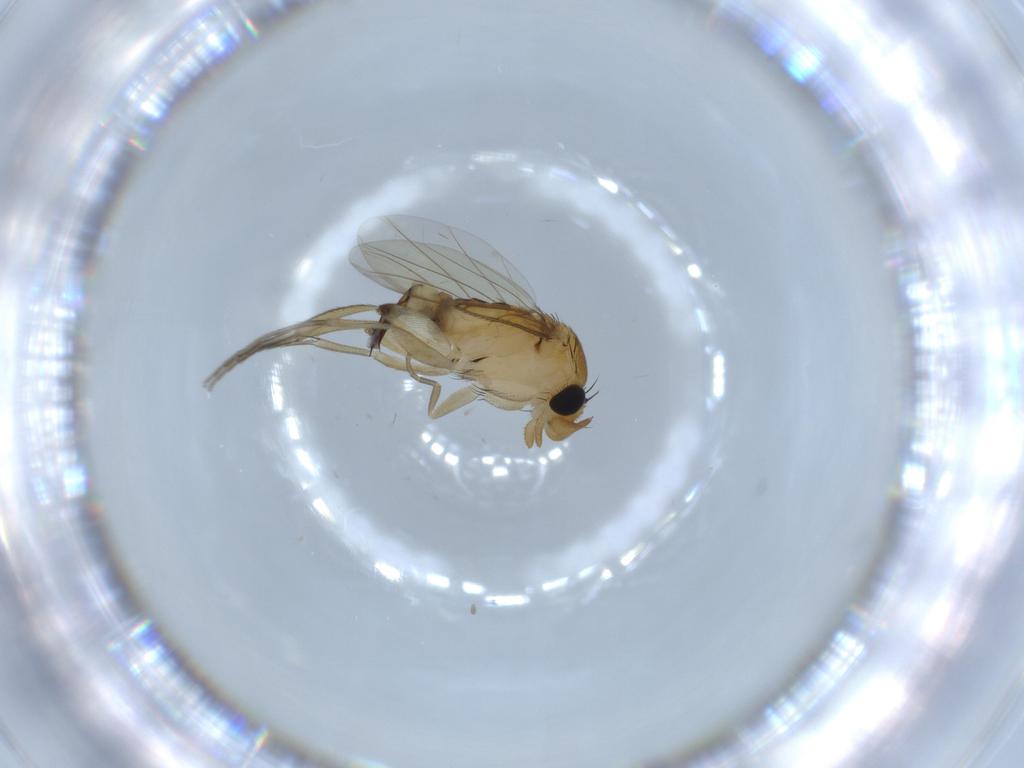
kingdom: Animalia
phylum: Arthropoda
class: Insecta
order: Diptera
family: Phoridae
